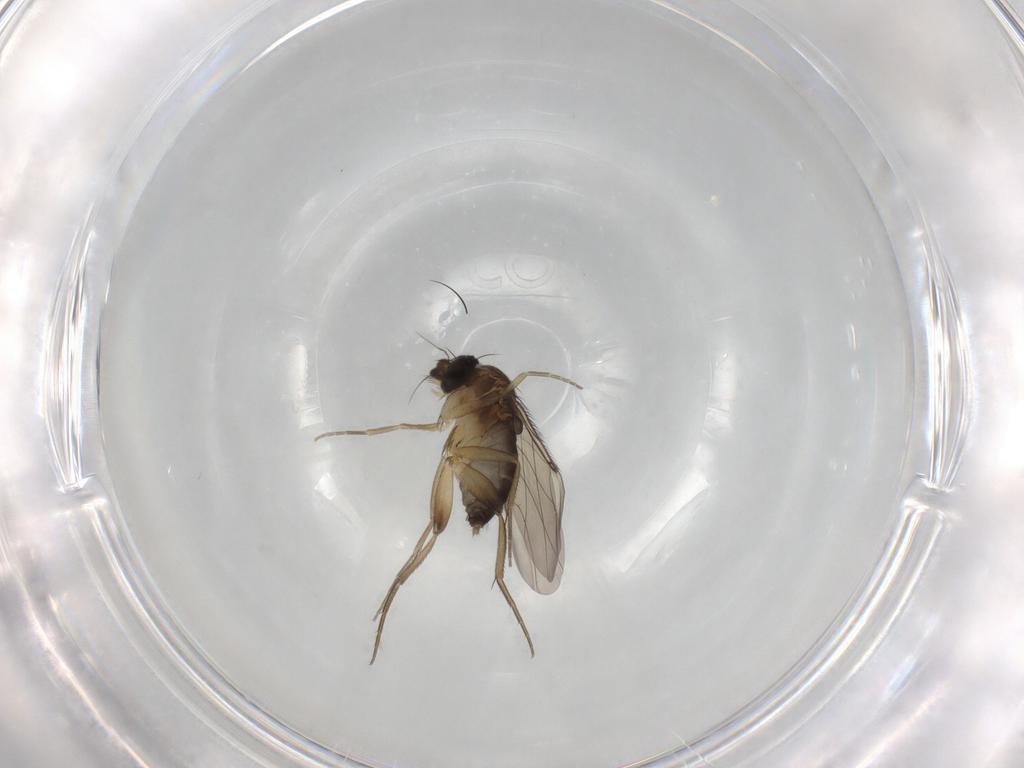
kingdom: Animalia
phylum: Arthropoda
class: Insecta
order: Diptera
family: Phoridae
